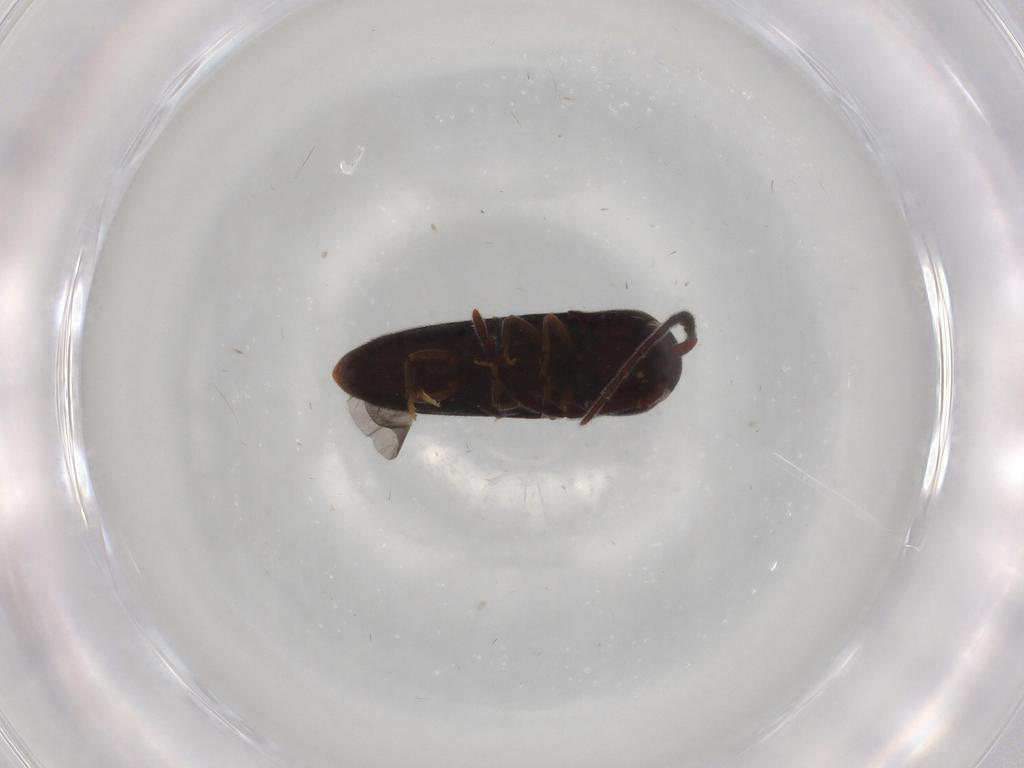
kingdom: Animalia
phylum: Arthropoda
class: Insecta
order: Coleoptera
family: Eucnemidae
